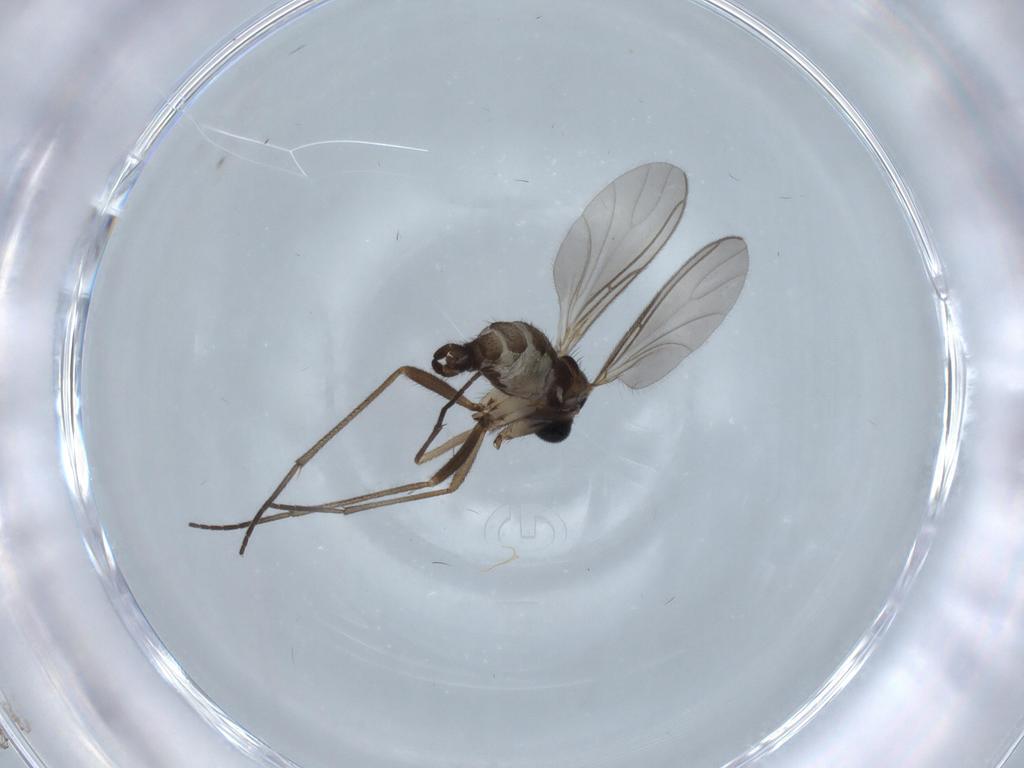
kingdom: Animalia
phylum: Arthropoda
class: Insecta
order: Diptera
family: Sciaridae
